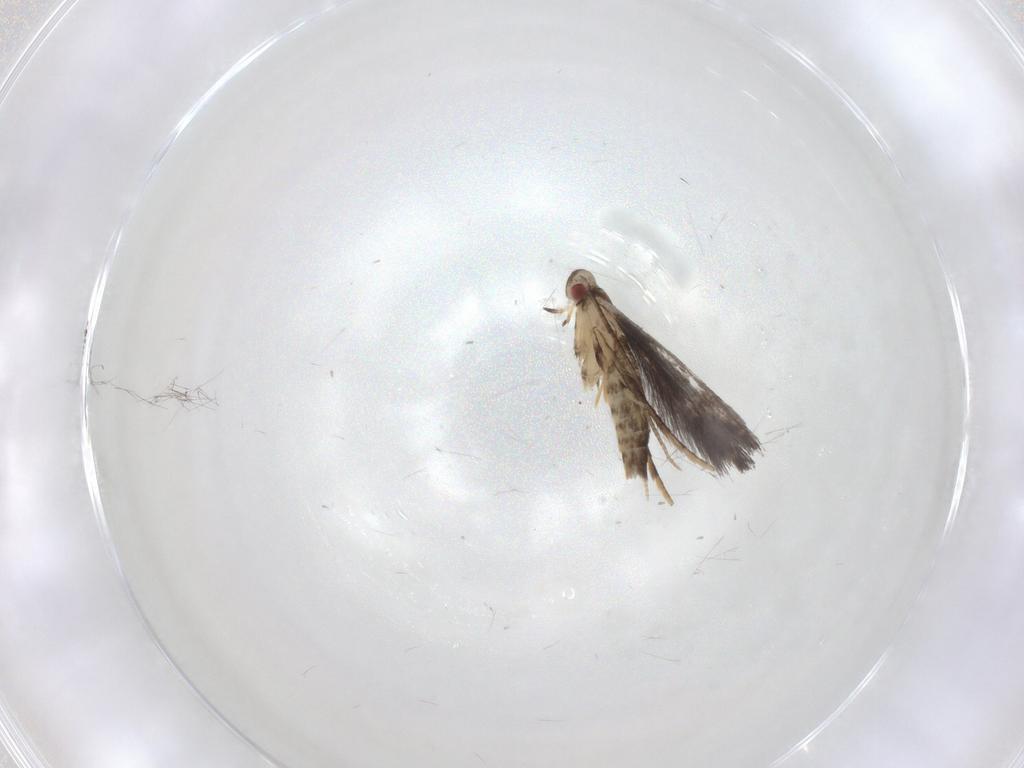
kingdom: Animalia
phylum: Arthropoda
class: Insecta
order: Lepidoptera
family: Gracillariidae
